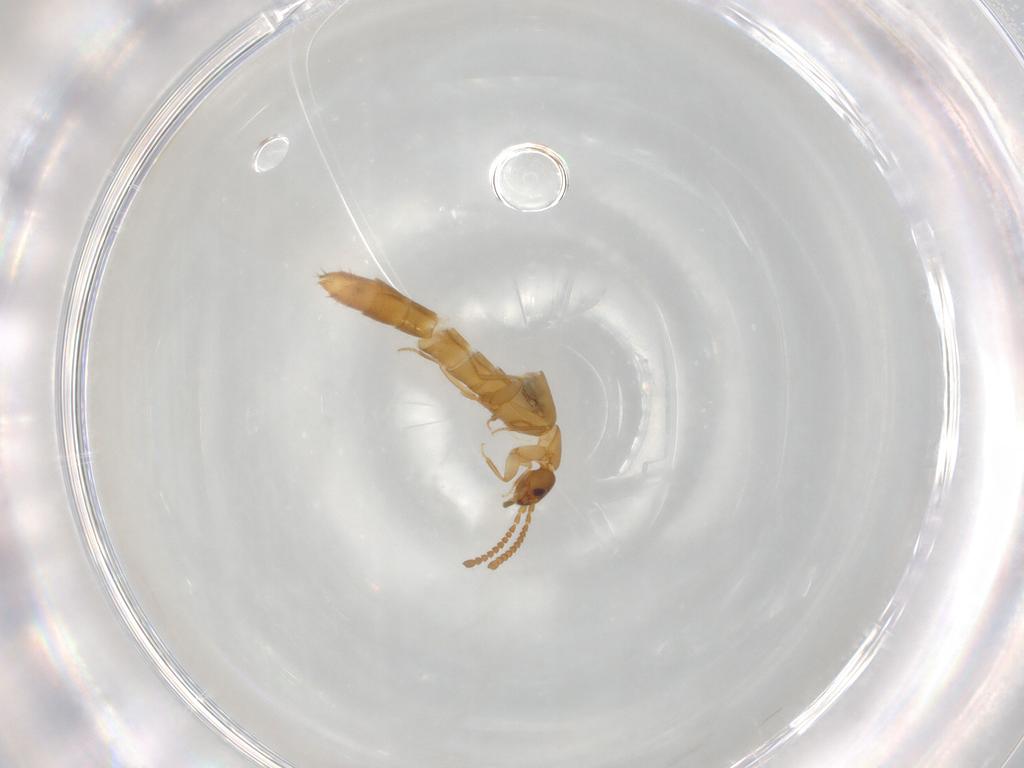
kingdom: Animalia
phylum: Arthropoda
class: Insecta
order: Coleoptera
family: Staphylinidae
